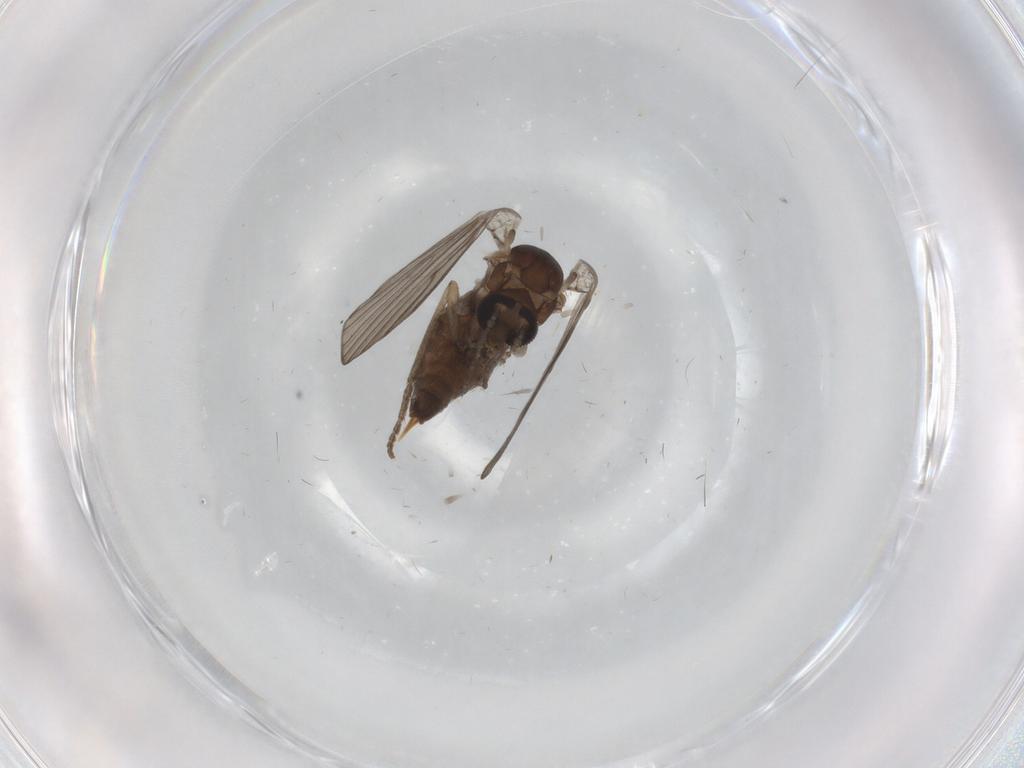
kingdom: Animalia
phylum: Arthropoda
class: Insecta
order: Diptera
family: Psychodidae
